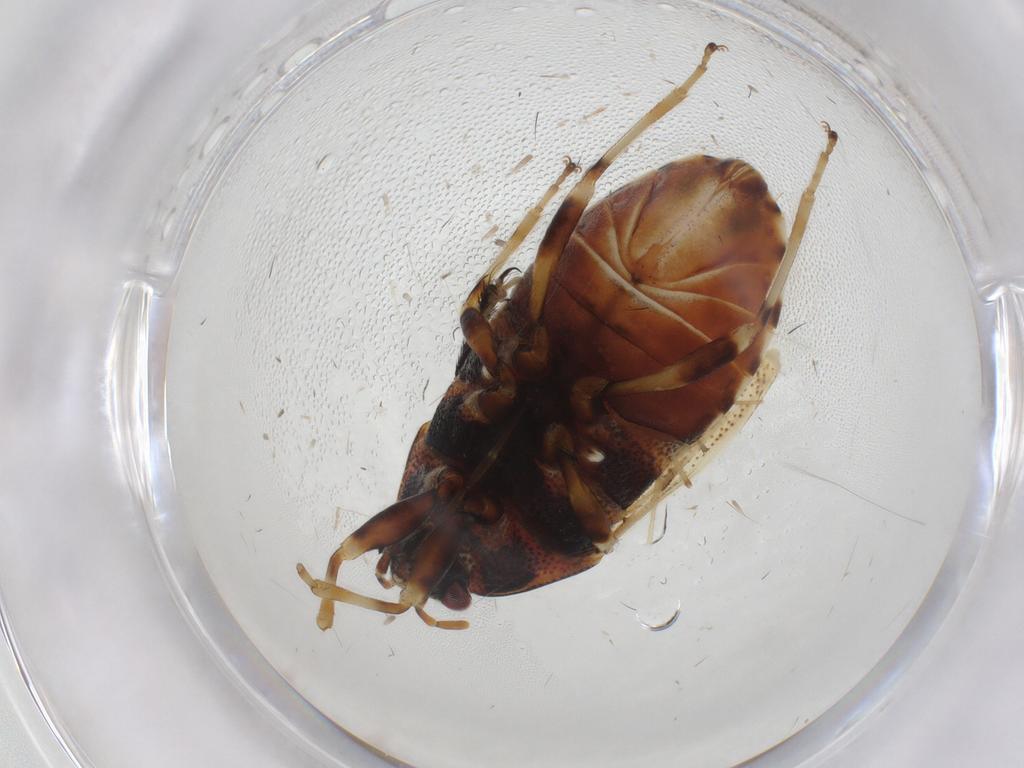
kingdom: Animalia
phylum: Arthropoda
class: Insecta
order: Hemiptera
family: Rhopalidae
